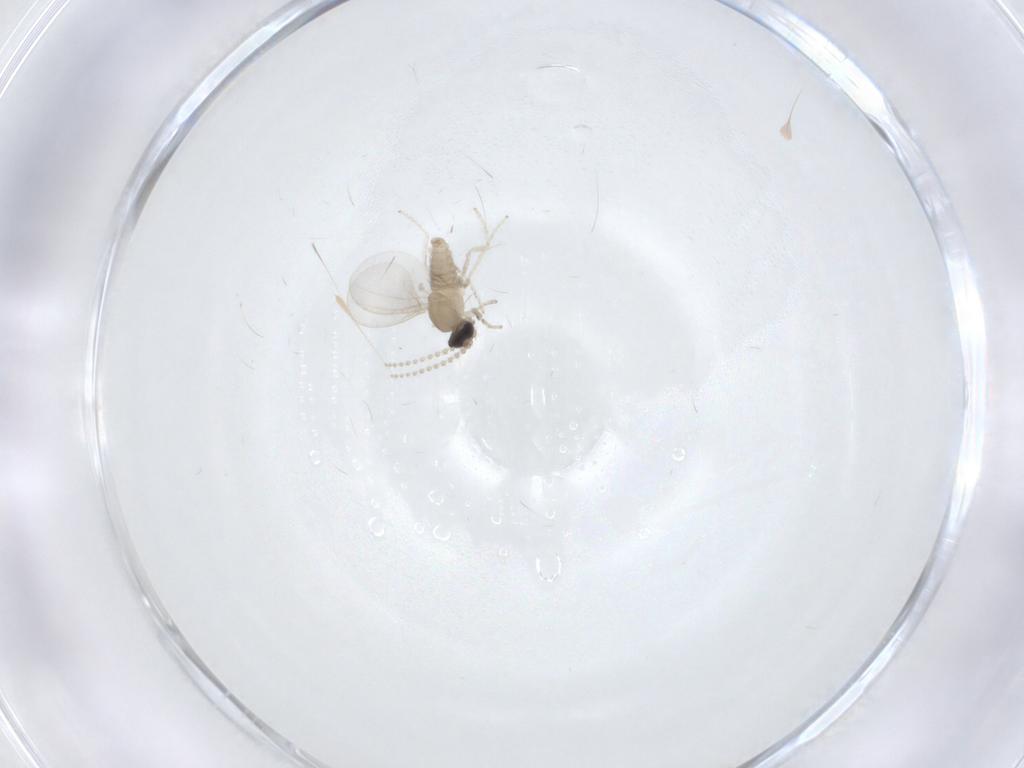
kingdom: Animalia
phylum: Arthropoda
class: Insecta
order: Diptera
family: Cecidomyiidae
